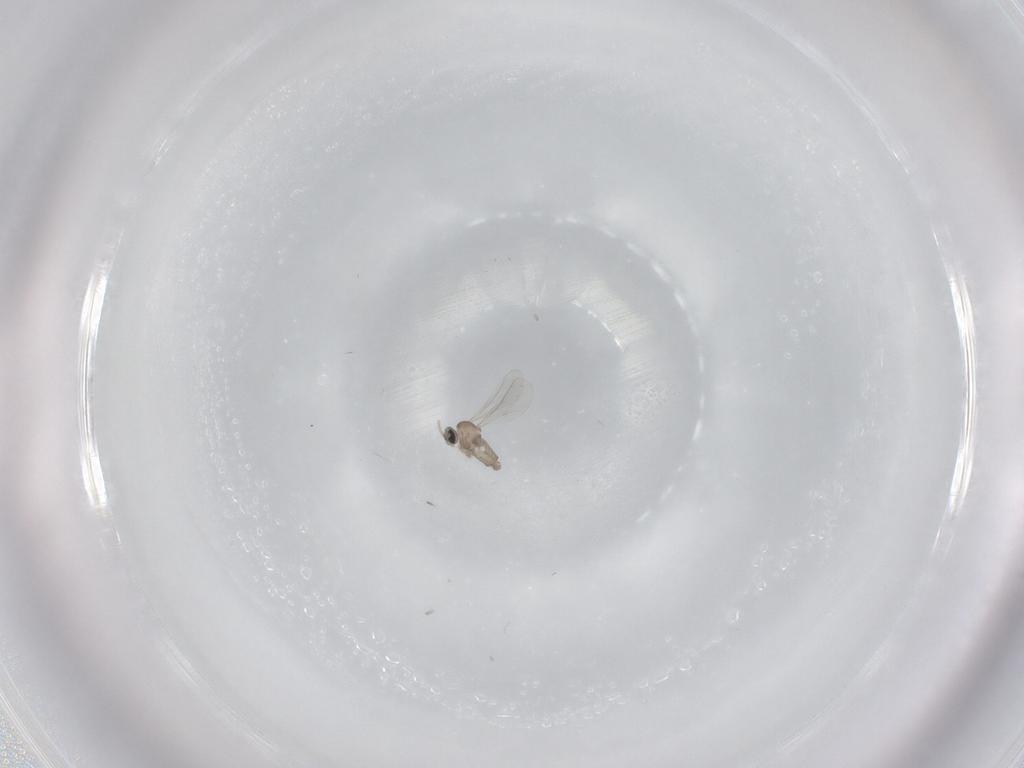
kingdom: Animalia
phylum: Arthropoda
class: Insecta
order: Diptera
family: Cecidomyiidae
